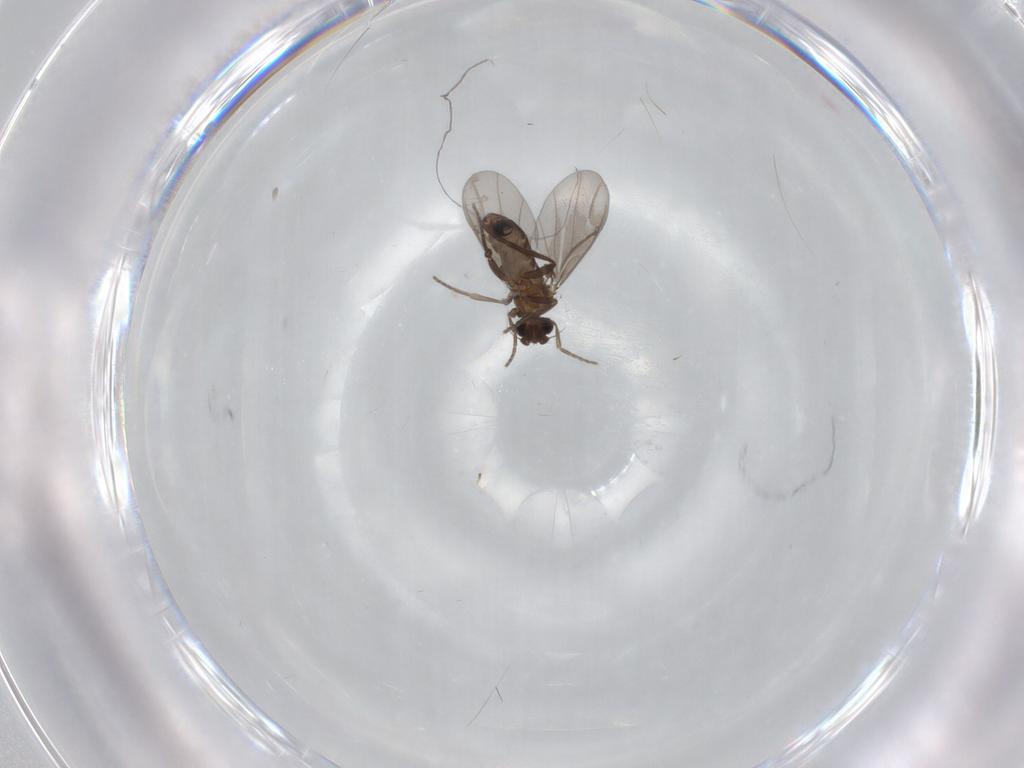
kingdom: Animalia
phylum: Arthropoda
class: Insecta
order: Diptera
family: Phoridae
